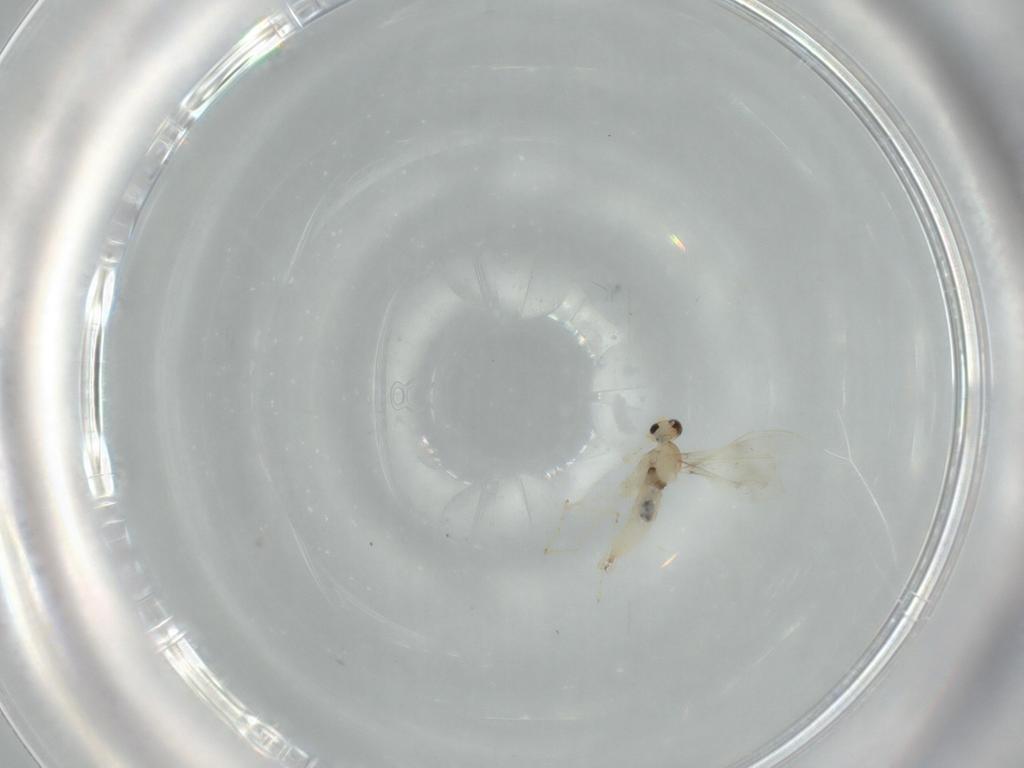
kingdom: Animalia
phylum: Arthropoda
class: Insecta
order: Diptera
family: Cecidomyiidae
